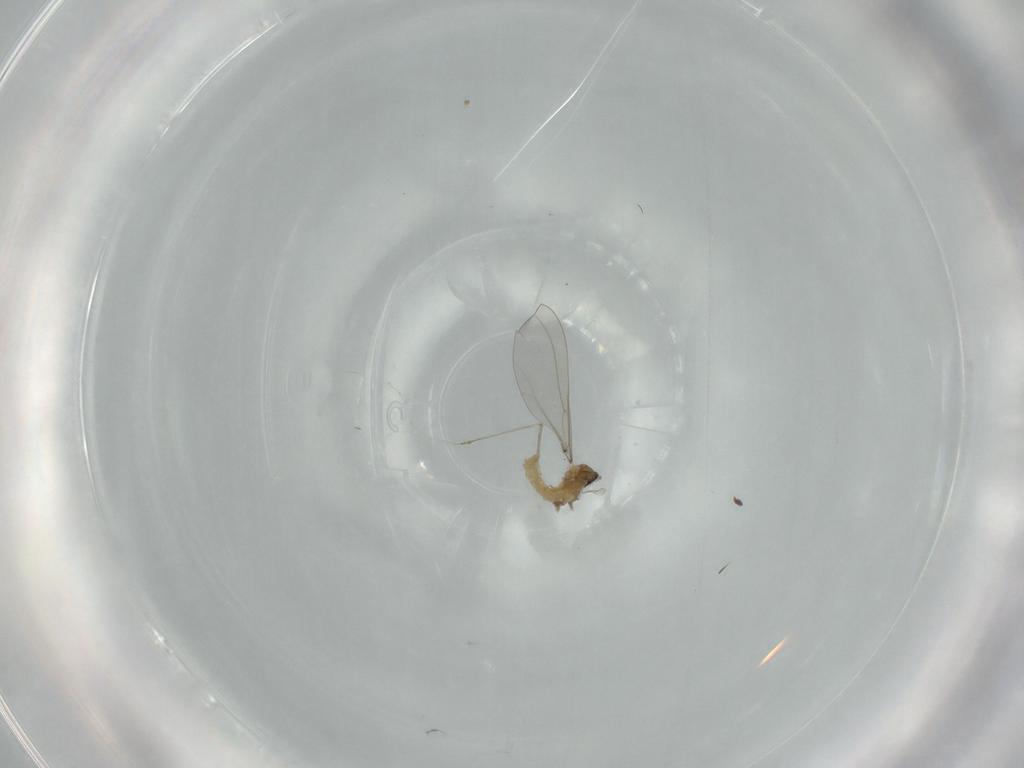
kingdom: Animalia
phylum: Arthropoda
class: Insecta
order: Diptera
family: Cecidomyiidae
